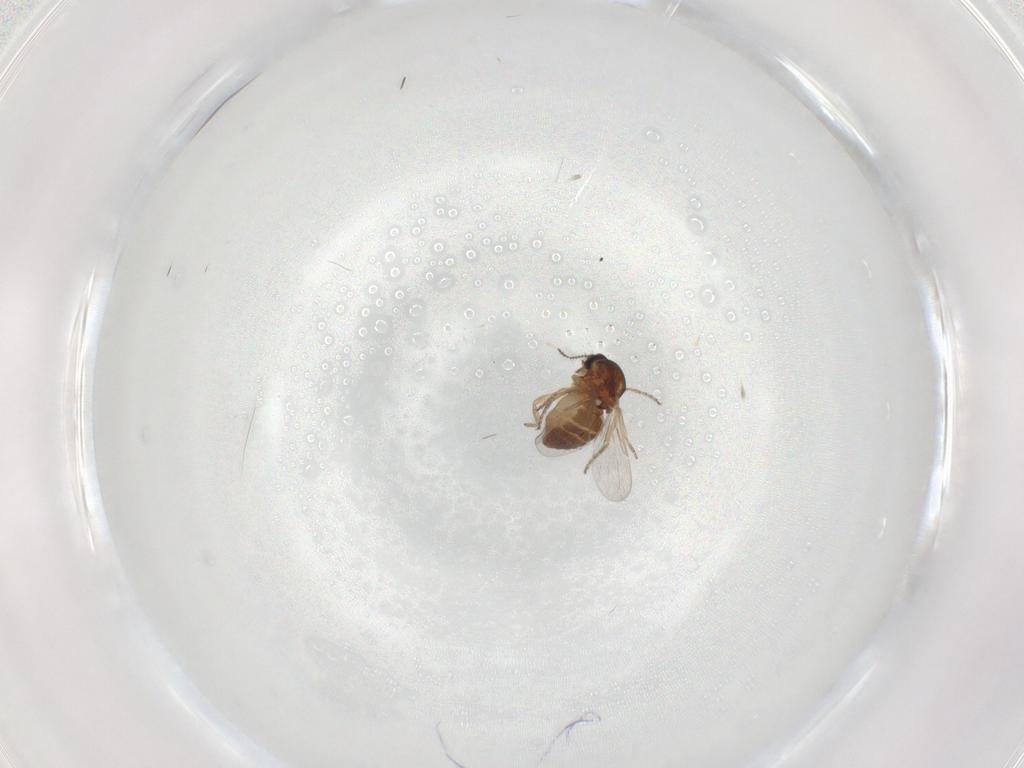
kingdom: Animalia
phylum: Arthropoda
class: Insecta
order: Diptera
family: Ceratopogonidae
